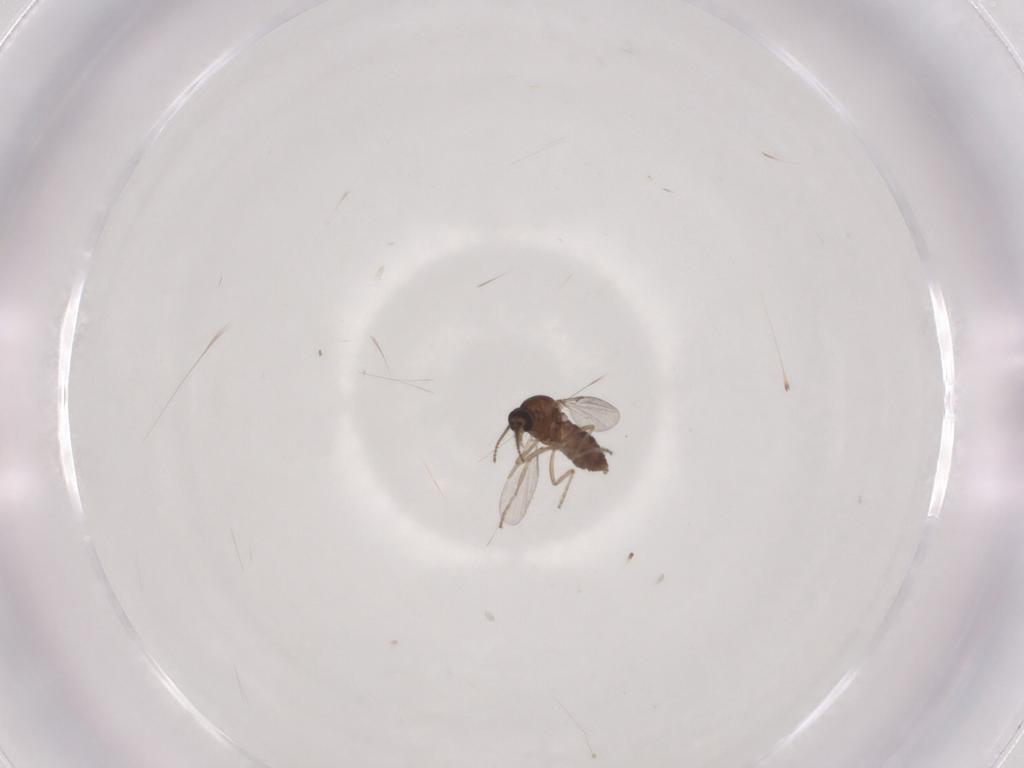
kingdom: Animalia
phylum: Arthropoda
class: Insecta
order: Diptera
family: Ceratopogonidae
